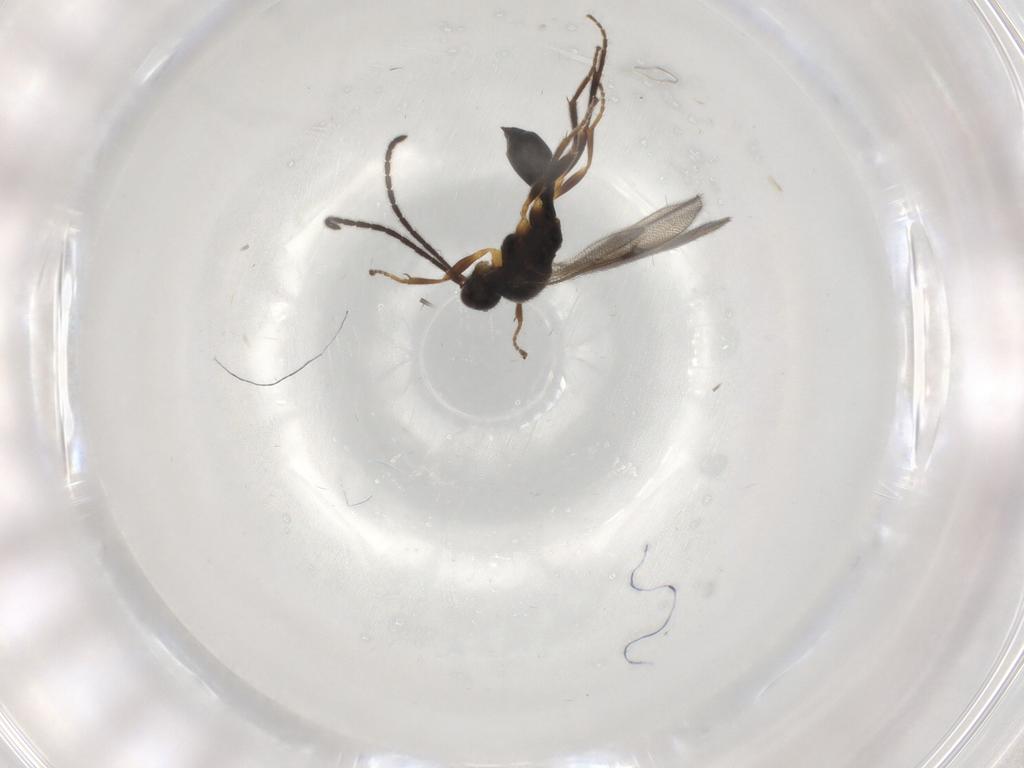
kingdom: Animalia
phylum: Arthropoda
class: Insecta
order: Hymenoptera
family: Proctotrupidae
